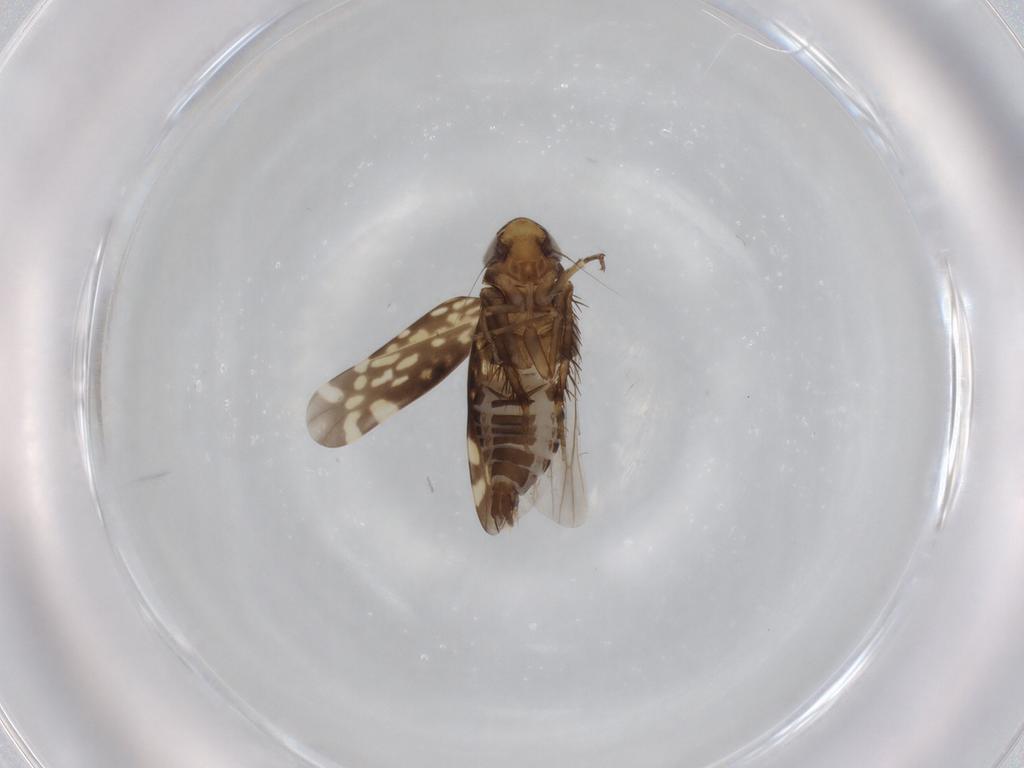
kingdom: Animalia
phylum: Arthropoda
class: Insecta
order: Hemiptera
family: Cicadellidae
